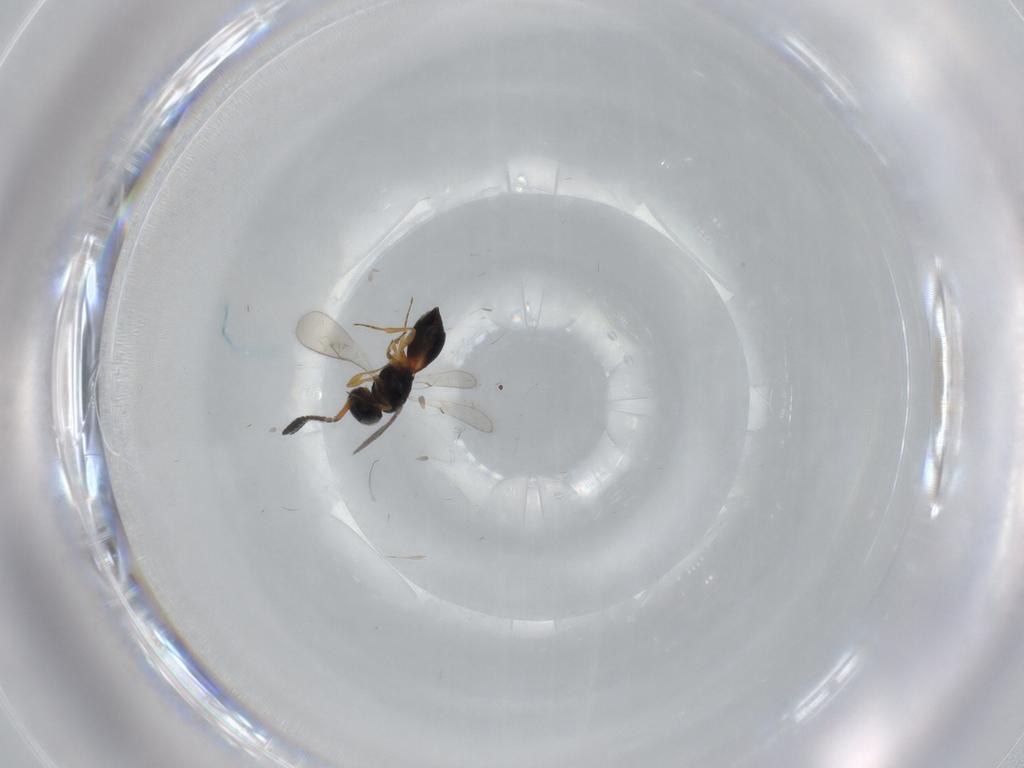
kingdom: Animalia
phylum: Arthropoda
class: Insecta
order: Hymenoptera
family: Scelionidae
